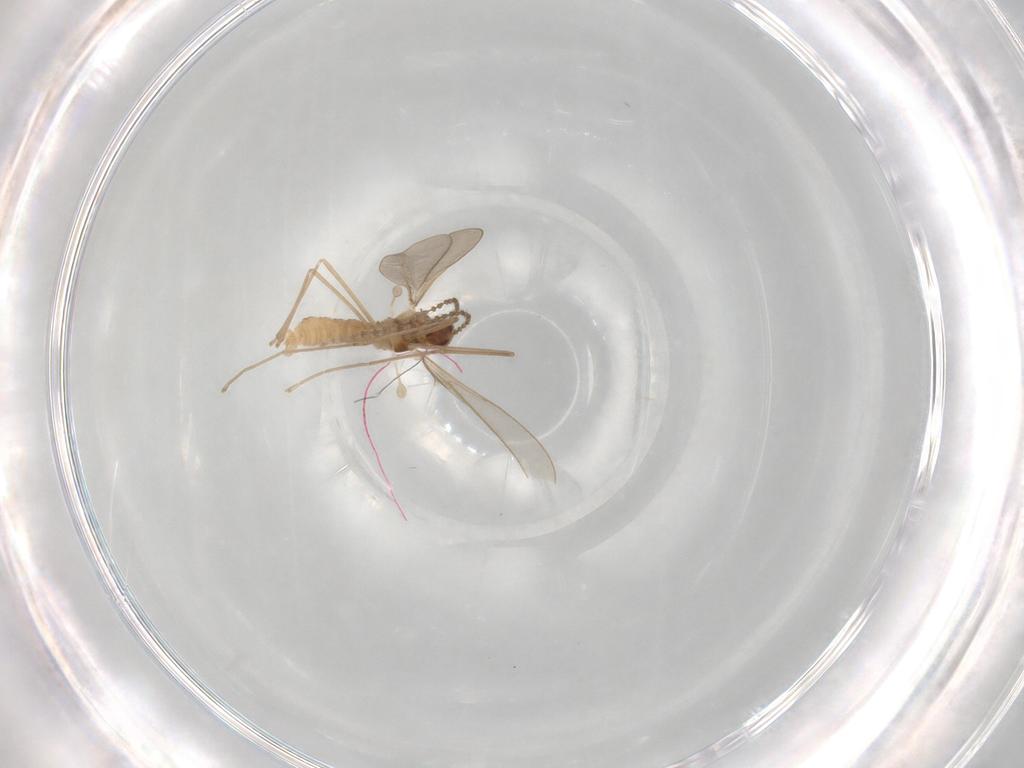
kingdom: Animalia
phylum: Arthropoda
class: Insecta
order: Diptera
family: Cecidomyiidae
